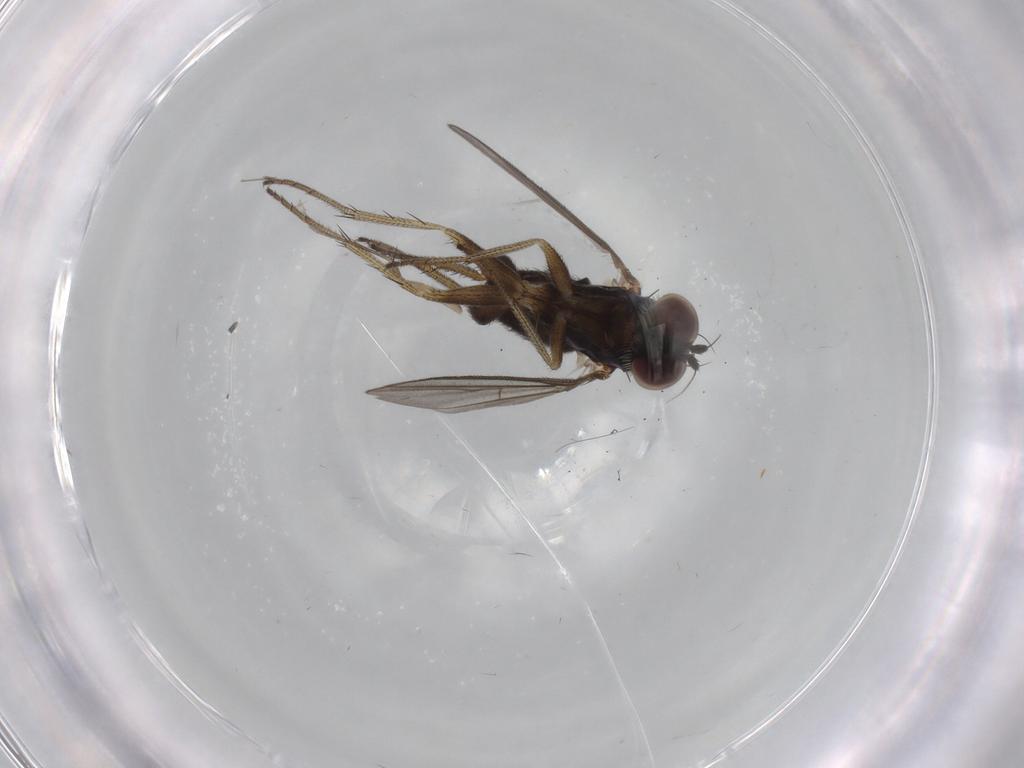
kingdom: Animalia
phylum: Arthropoda
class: Insecta
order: Diptera
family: Phoridae
